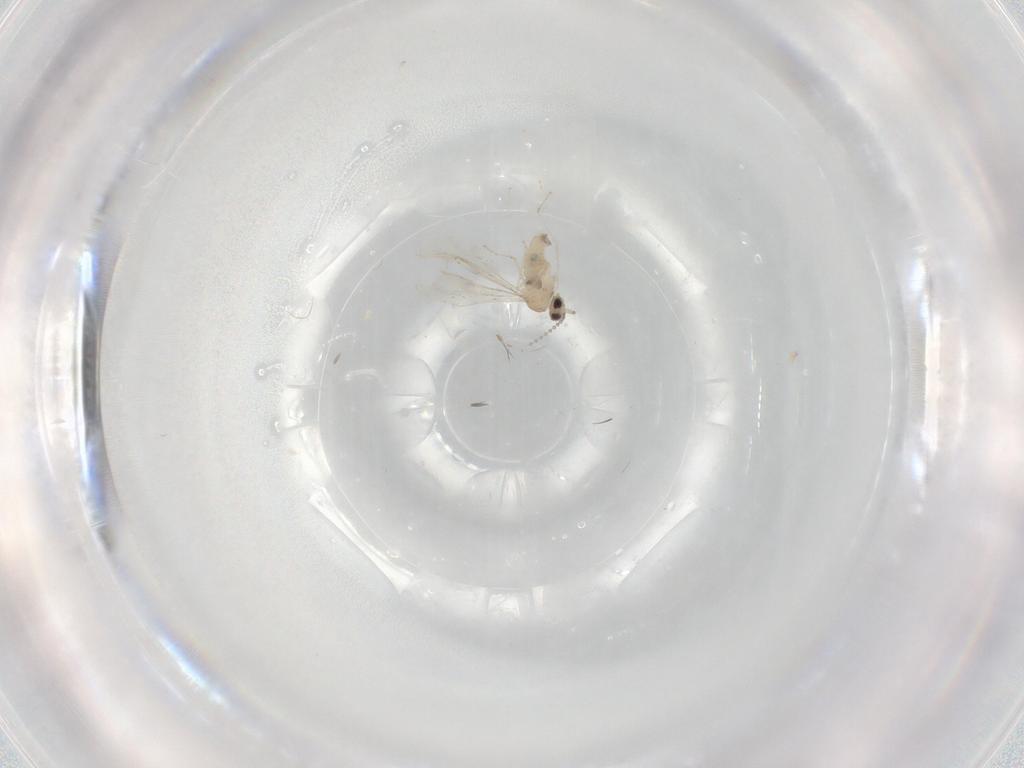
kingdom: Animalia
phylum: Arthropoda
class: Insecta
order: Diptera
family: Cecidomyiidae
